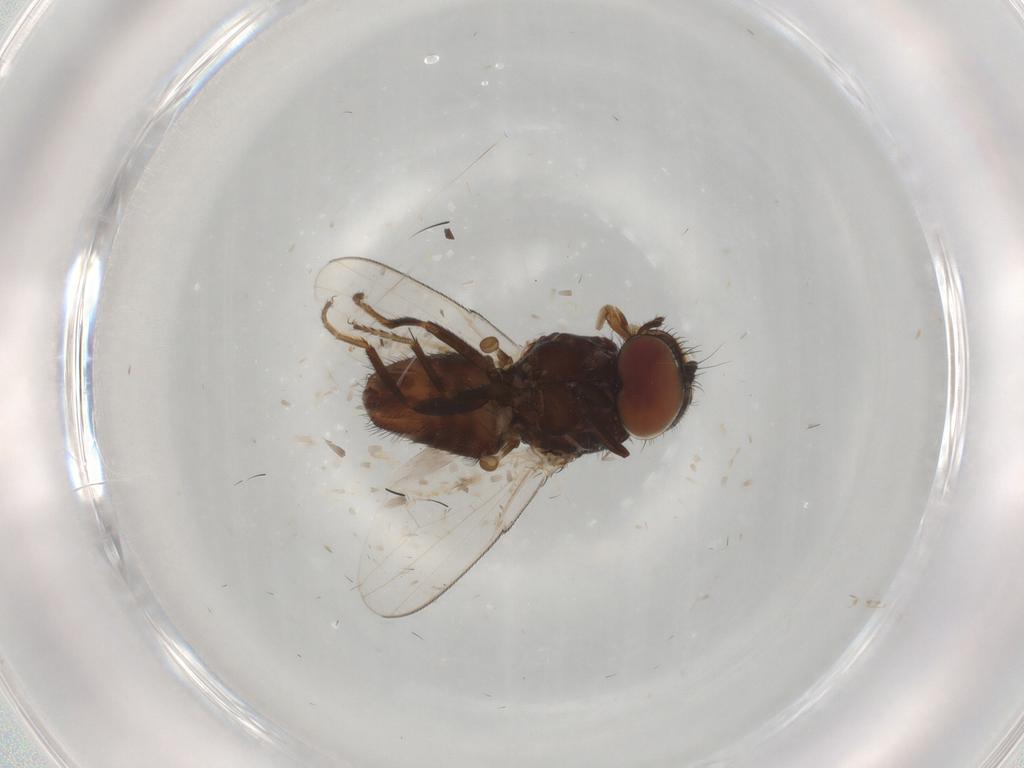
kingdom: Animalia
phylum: Arthropoda
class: Insecta
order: Diptera
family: Milichiidae
